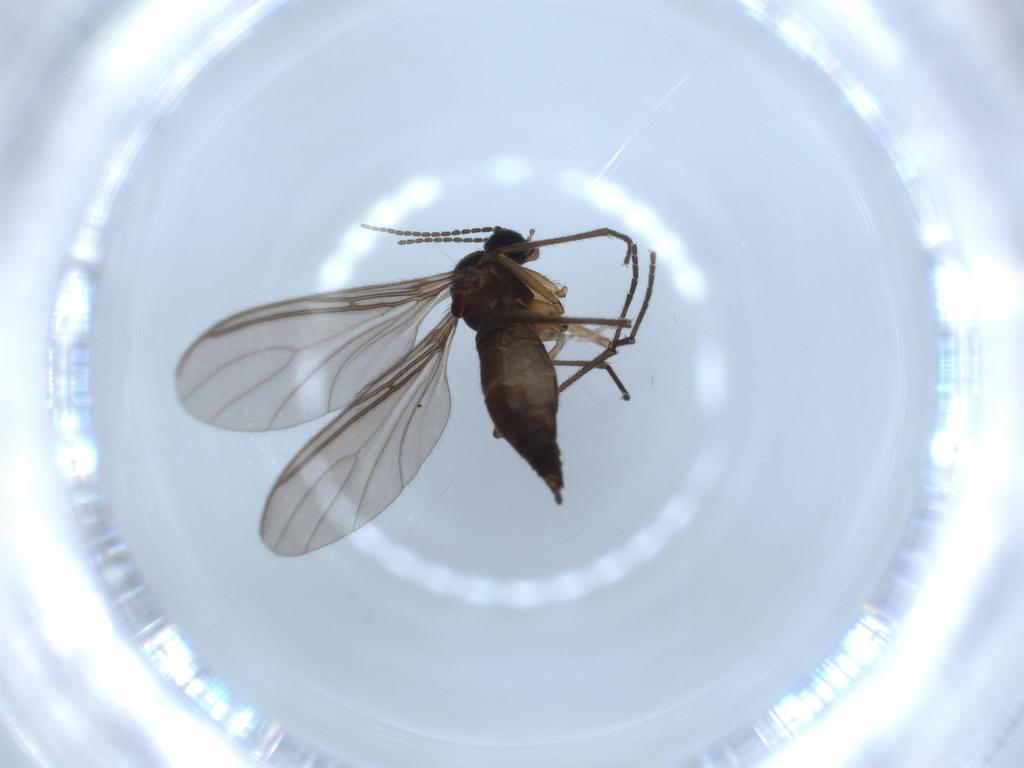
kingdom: Animalia
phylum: Arthropoda
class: Insecta
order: Diptera
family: Sciaridae
